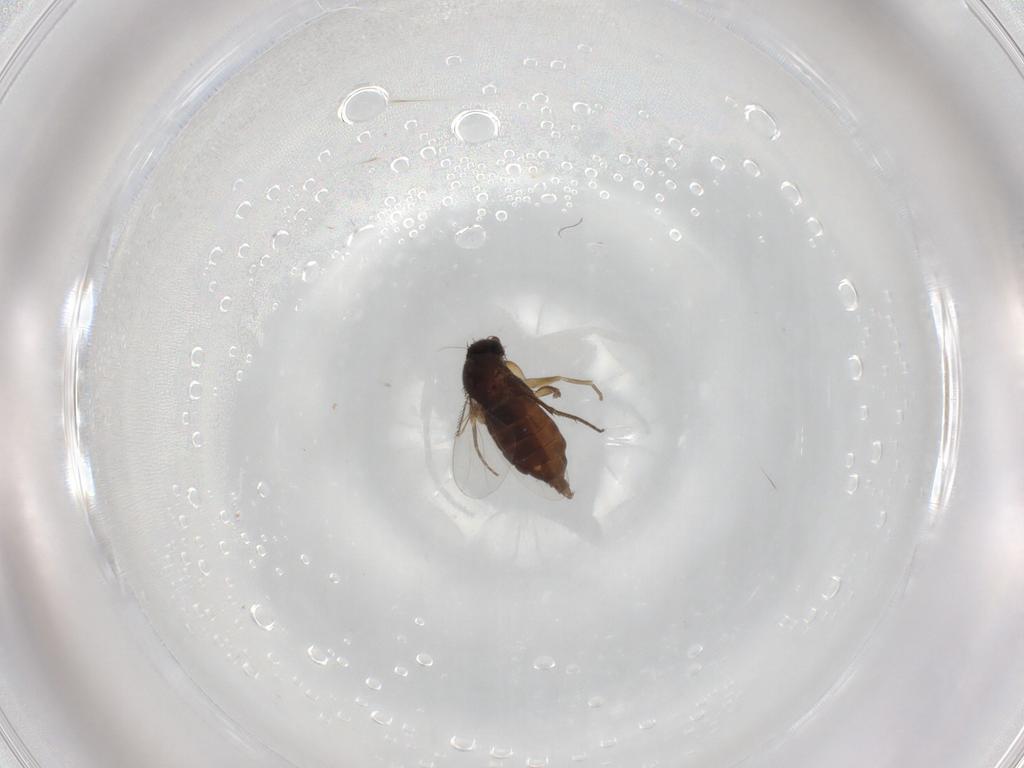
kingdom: Animalia
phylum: Arthropoda
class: Insecta
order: Diptera
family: Phoridae
